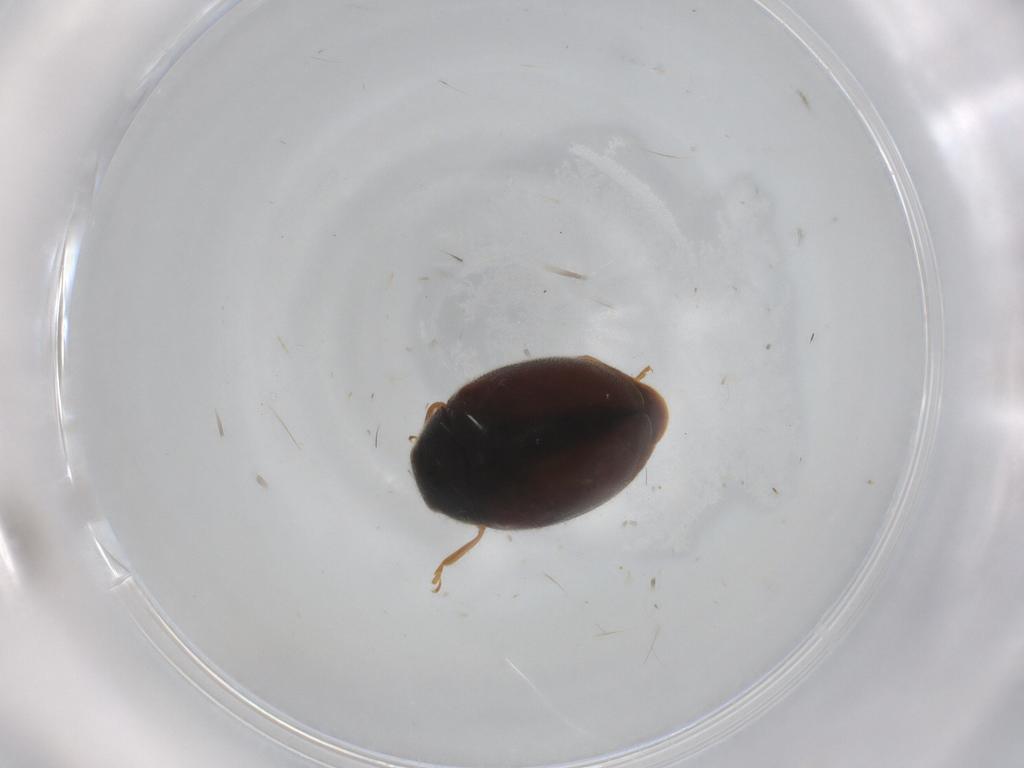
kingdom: Animalia
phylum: Arthropoda
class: Insecta
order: Coleoptera
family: Coccinellidae
